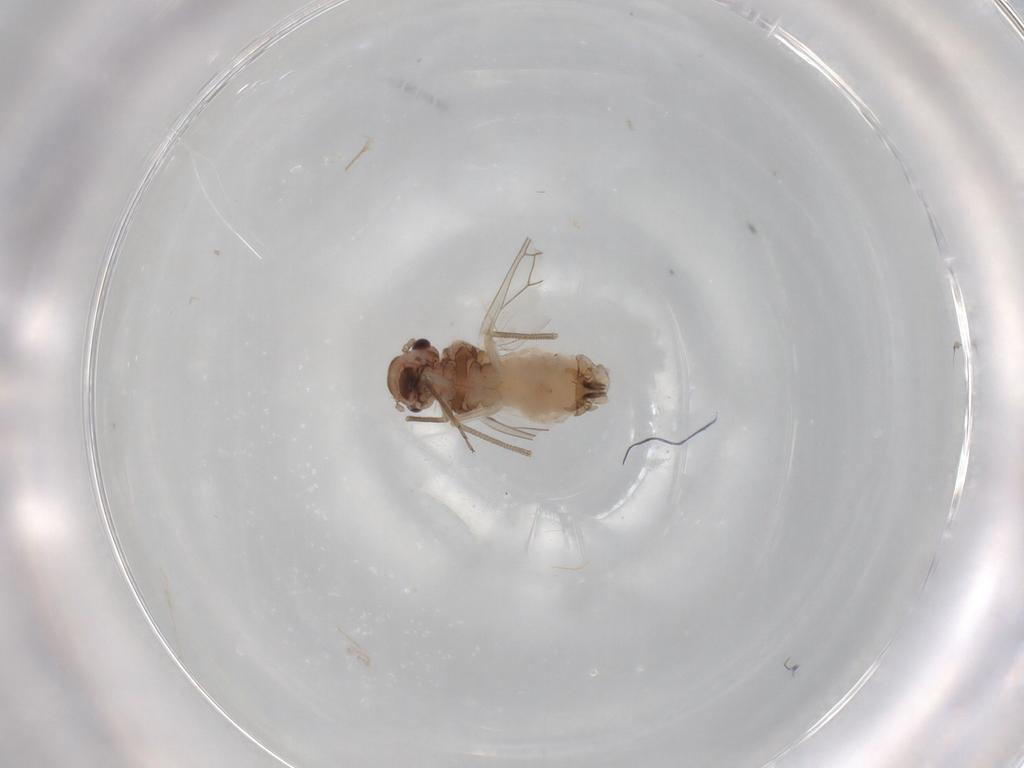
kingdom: Animalia
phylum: Arthropoda
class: Insecta
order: Psocodea
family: Peripsocidae
